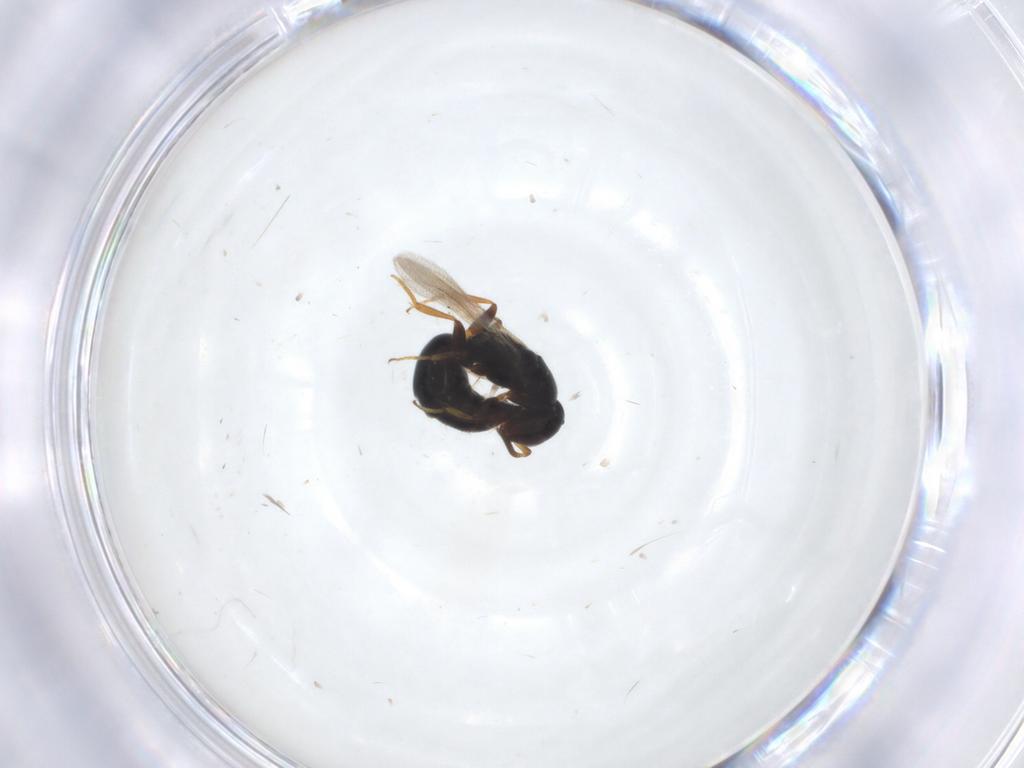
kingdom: Animalia
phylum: Arthropoda
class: Insecta
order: Hymenoptera
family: Bethylidae
